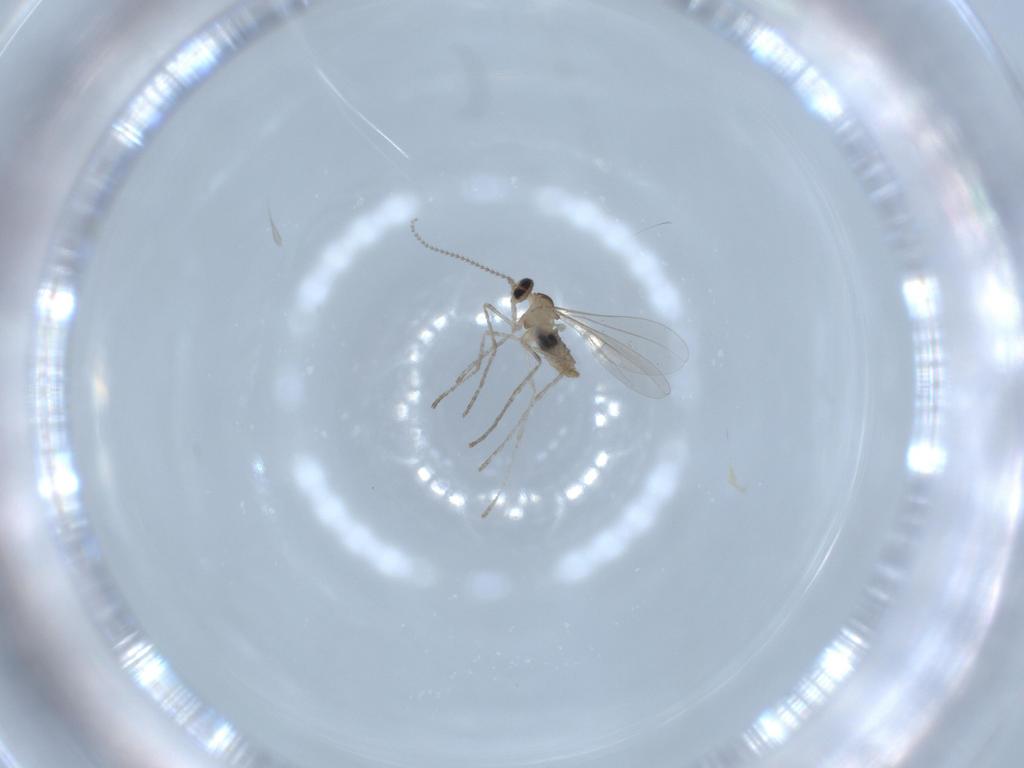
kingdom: Animalia
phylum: Arthropoda
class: Insecta
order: Diptera
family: Cecidomyiidae
